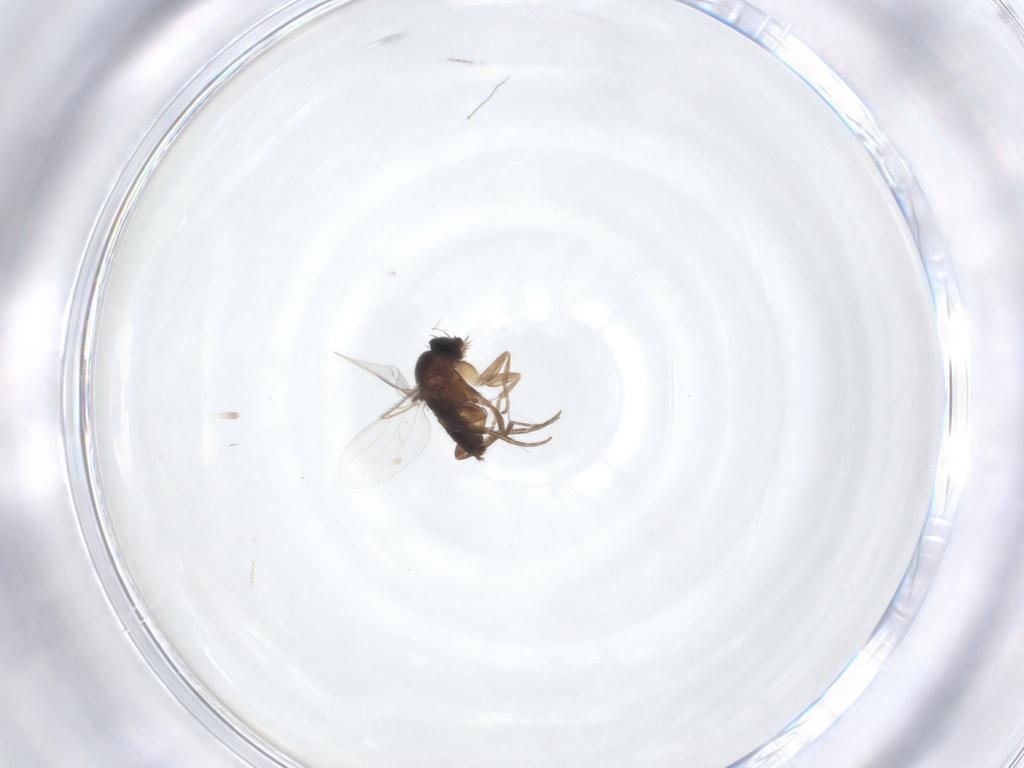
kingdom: Animalia
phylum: Arthropoda
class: Insecta
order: Diptera
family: Phoridae
